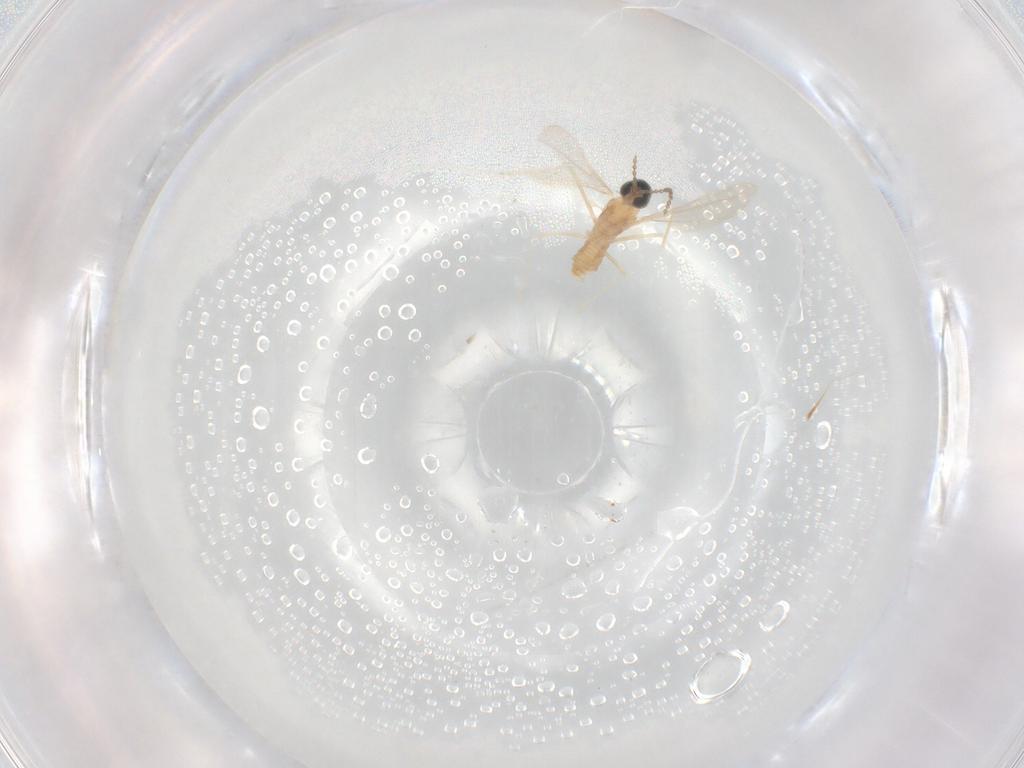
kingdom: Animalia
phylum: Arthropoda
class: Insecta
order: Diptera
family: Cecidomyiidae
